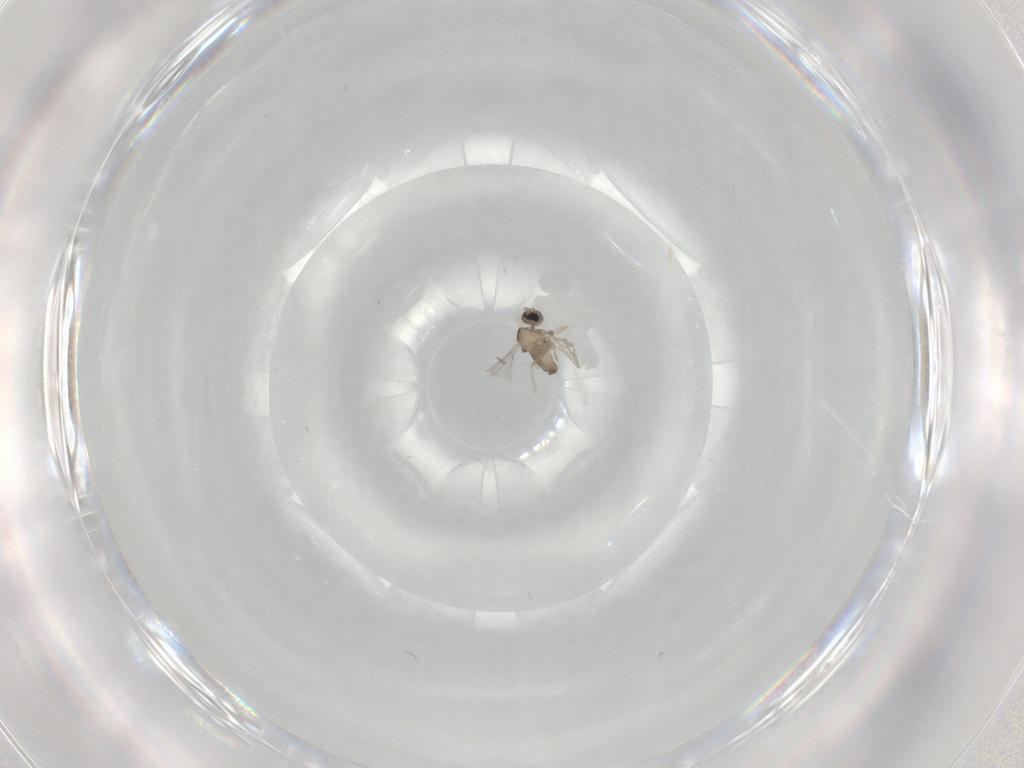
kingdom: Animalia
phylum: Arthropoda
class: Insecta
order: Diptera
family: Cecidomyiidae
